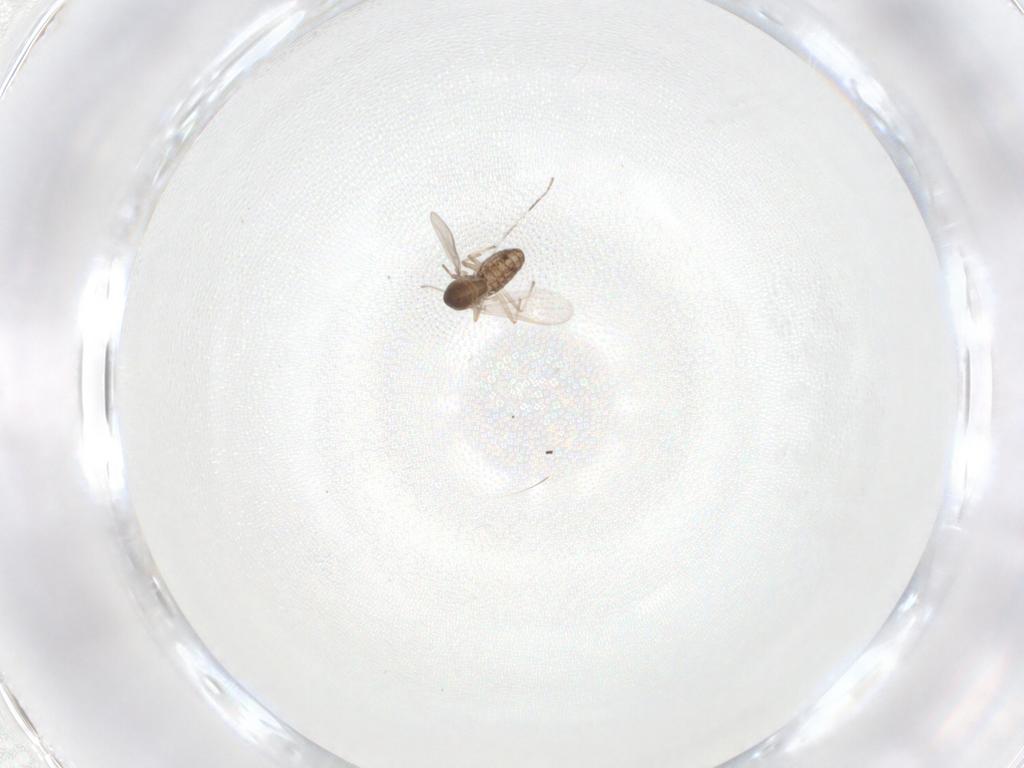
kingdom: Animalia
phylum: Arthropoda
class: Insecta
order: Diptera
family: Chironomidae
